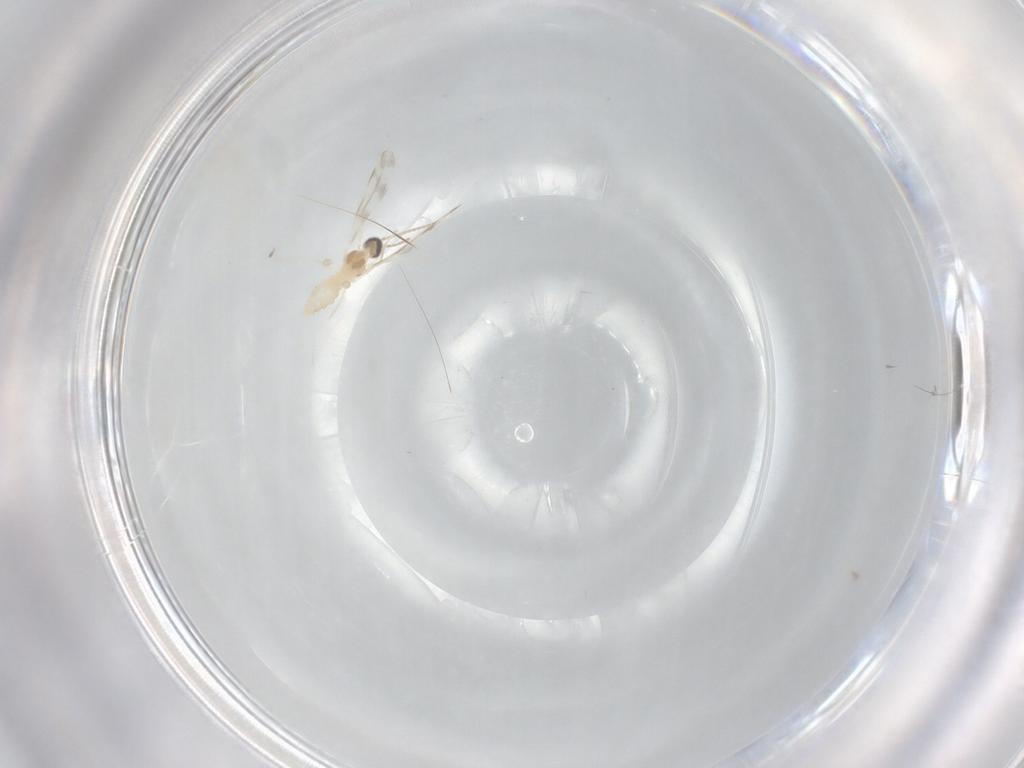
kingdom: Animalia
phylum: Arthropoda
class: Insecta
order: Diptera
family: Cecidomyiidae
